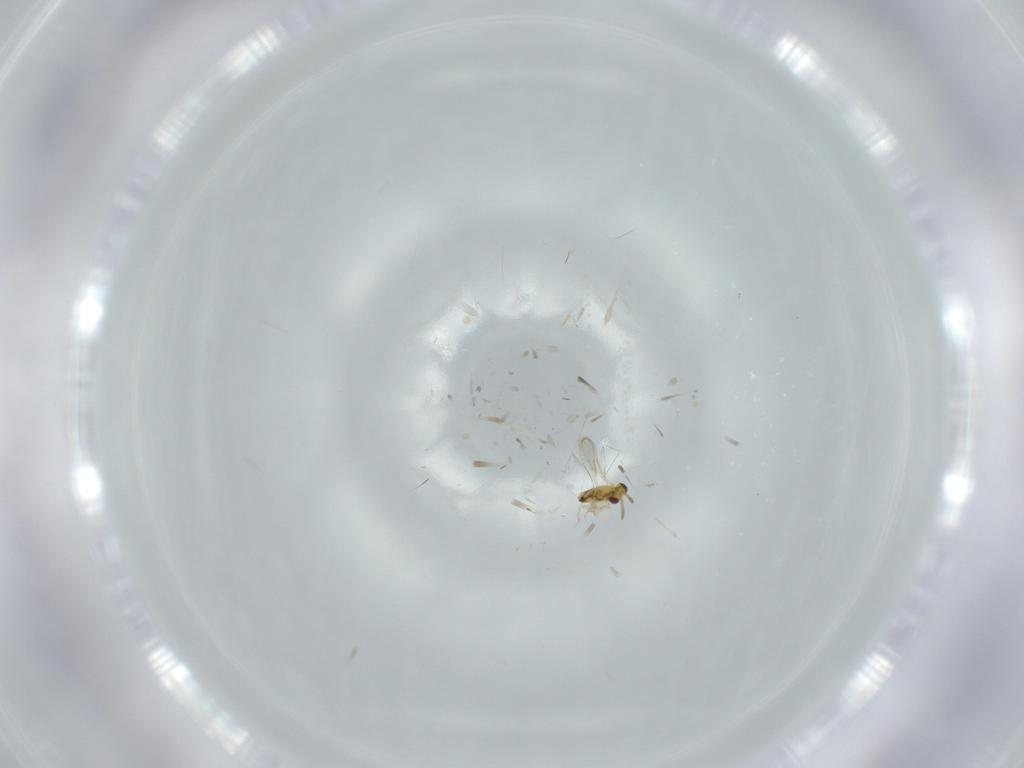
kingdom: Animalia
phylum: Arthropoda
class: Insecta
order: Hymenoptera
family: Aphelinidae
